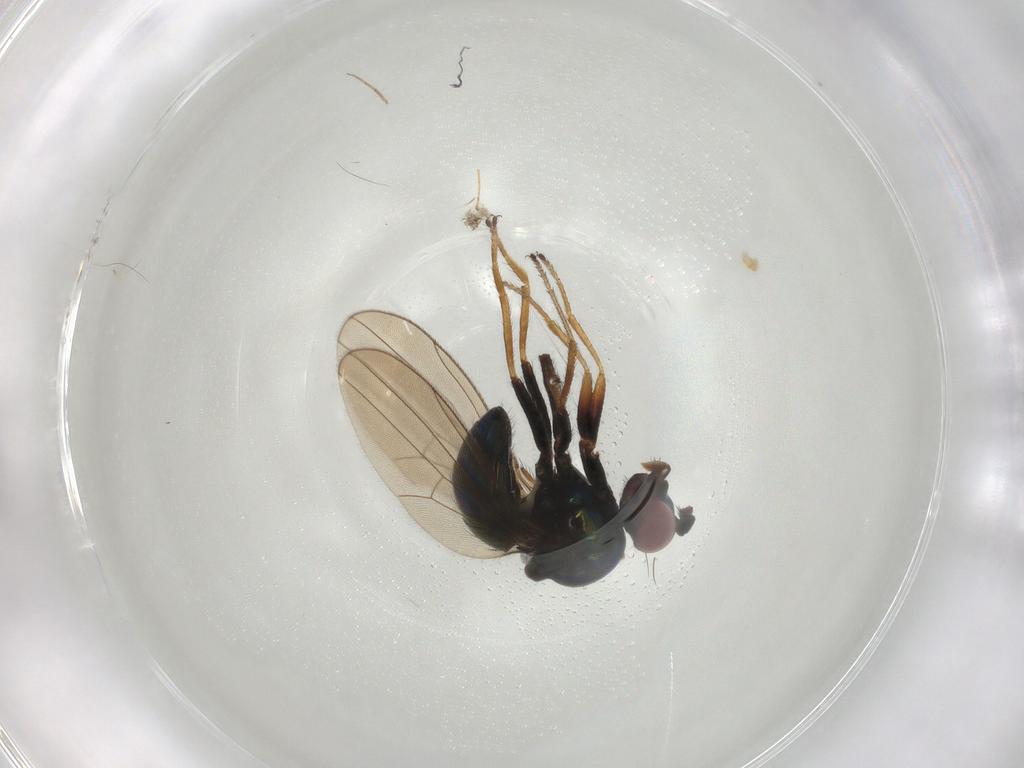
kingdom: Animalia
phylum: Arthropoda
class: Insecta
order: Diptera
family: Ephydridae
